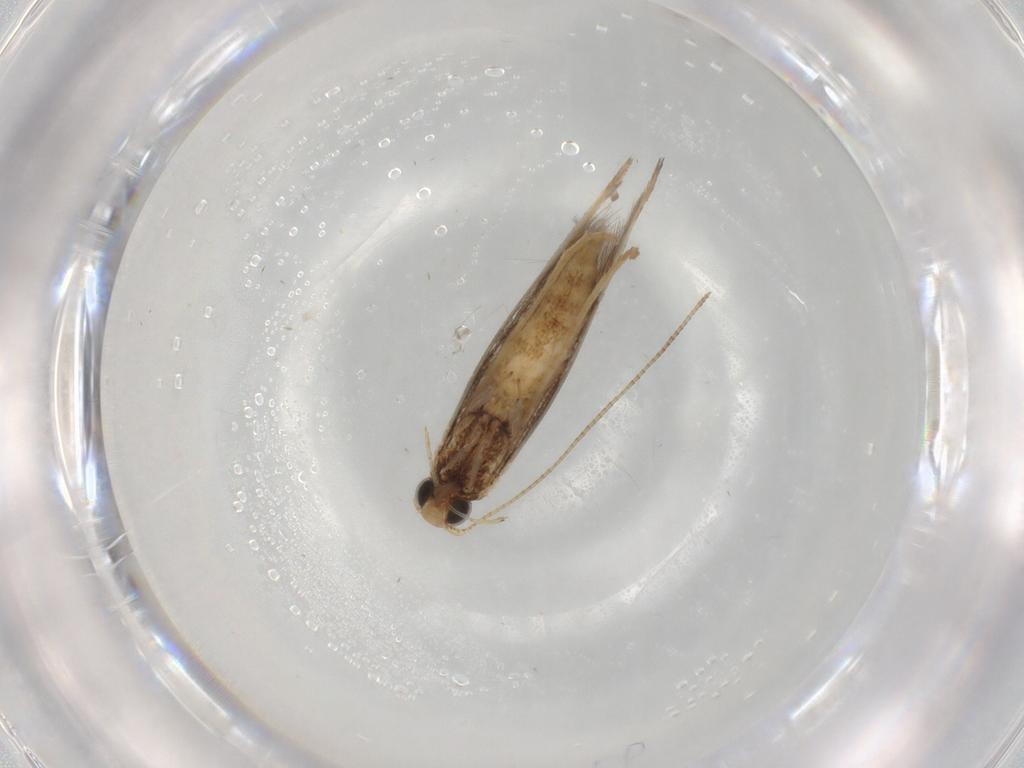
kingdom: Animalia
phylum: Arthropoda
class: Insecta
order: Lepidoptera
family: Gracillariidae
